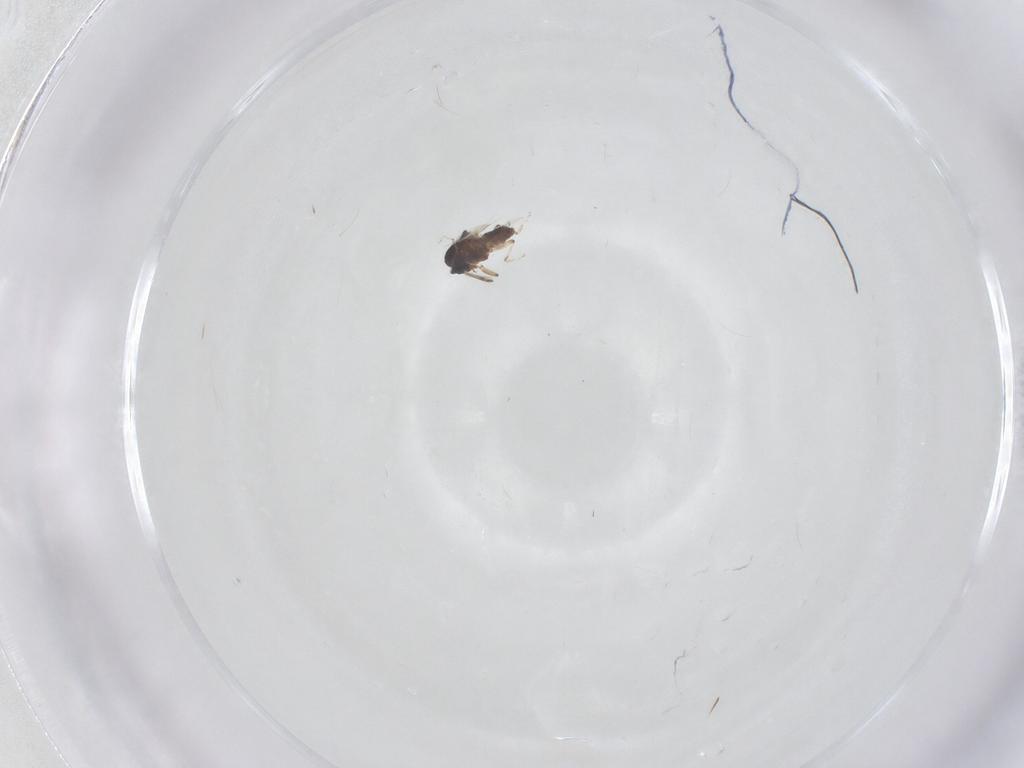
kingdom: Animalia
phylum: Arthropoda
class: Insecta
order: Diptera
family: Ceratopogonidae
